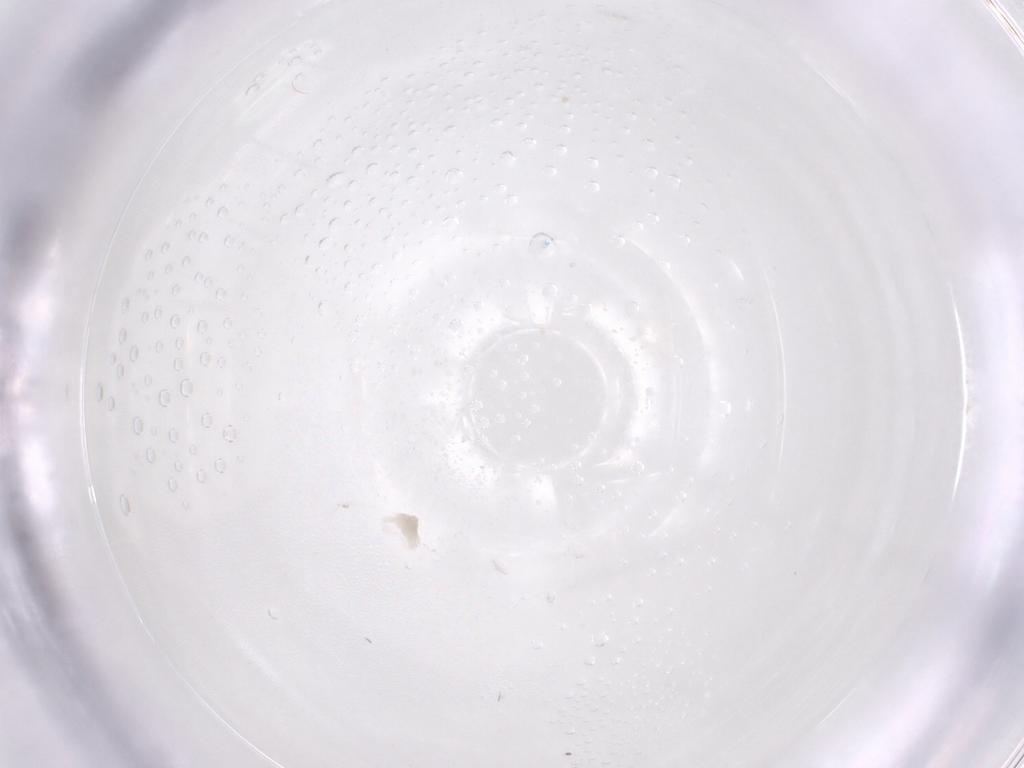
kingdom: Animalia
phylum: Arthropoda
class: Arachnida
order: Trombidiformes
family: Eupodidae
